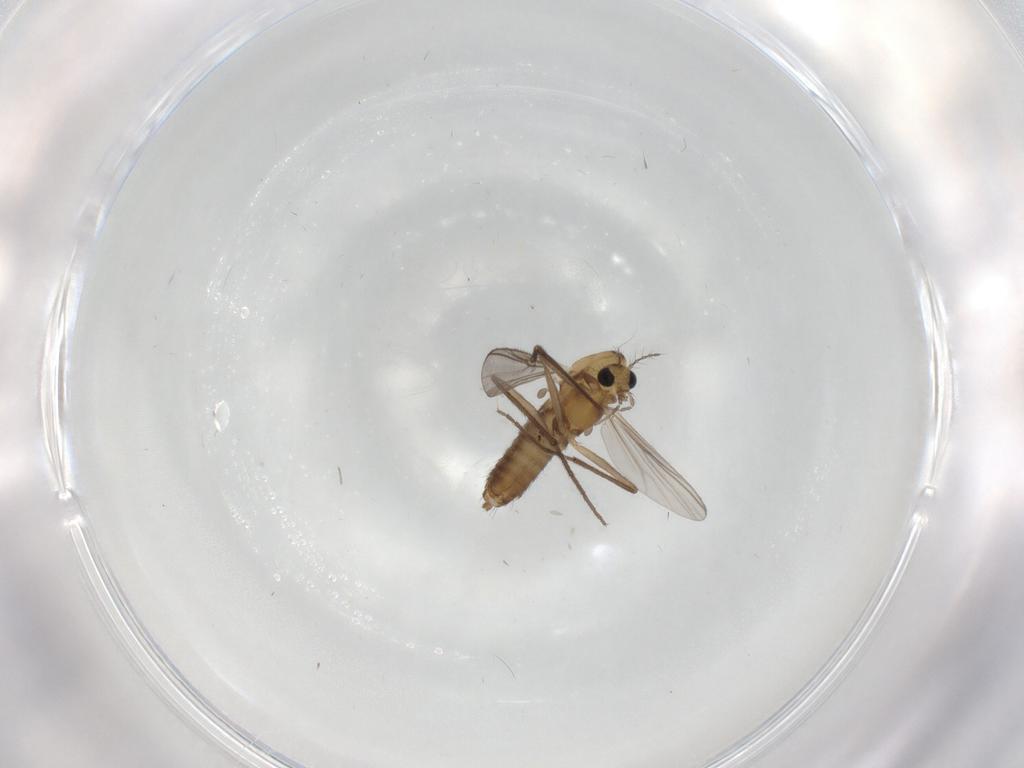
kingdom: Animalia
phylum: Arthropoda
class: Insecta
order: Diptera
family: Chironomidae
